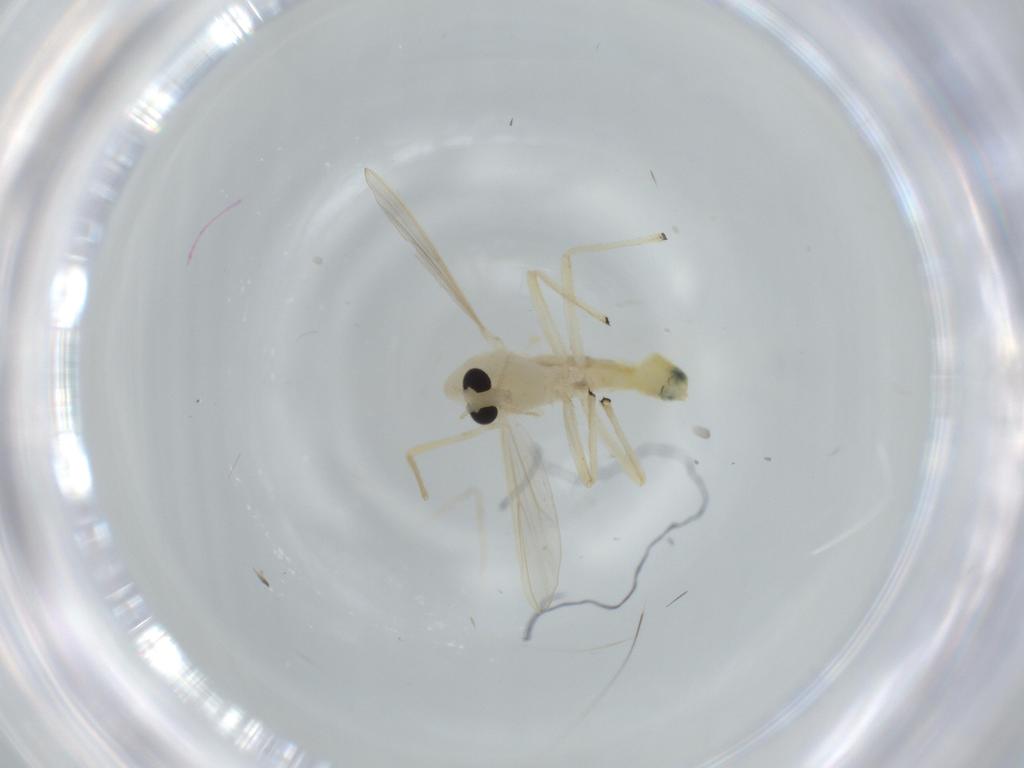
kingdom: Animalia
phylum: Arthropoda
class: Insecta
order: Diptera
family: Chironomidae
